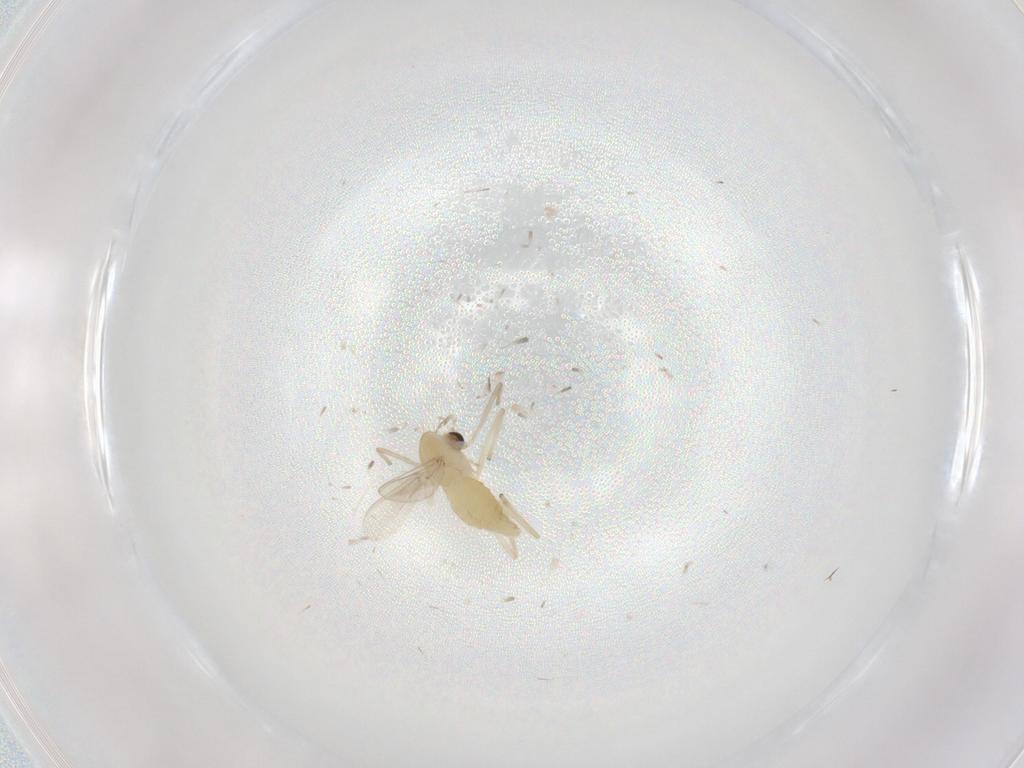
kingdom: Animalia
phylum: Arthropoda
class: Insecta
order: Diptera
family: Chironomidae
